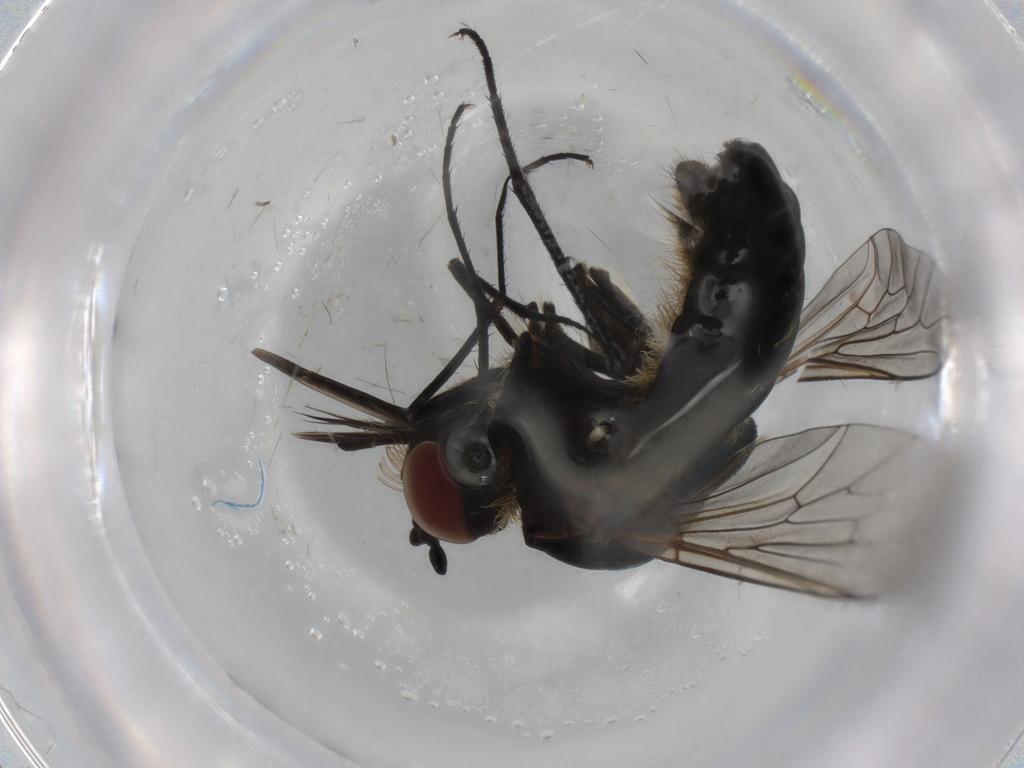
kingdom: Animalia
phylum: Arthropoda
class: Insecta
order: Diptera
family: Bombyliidae
